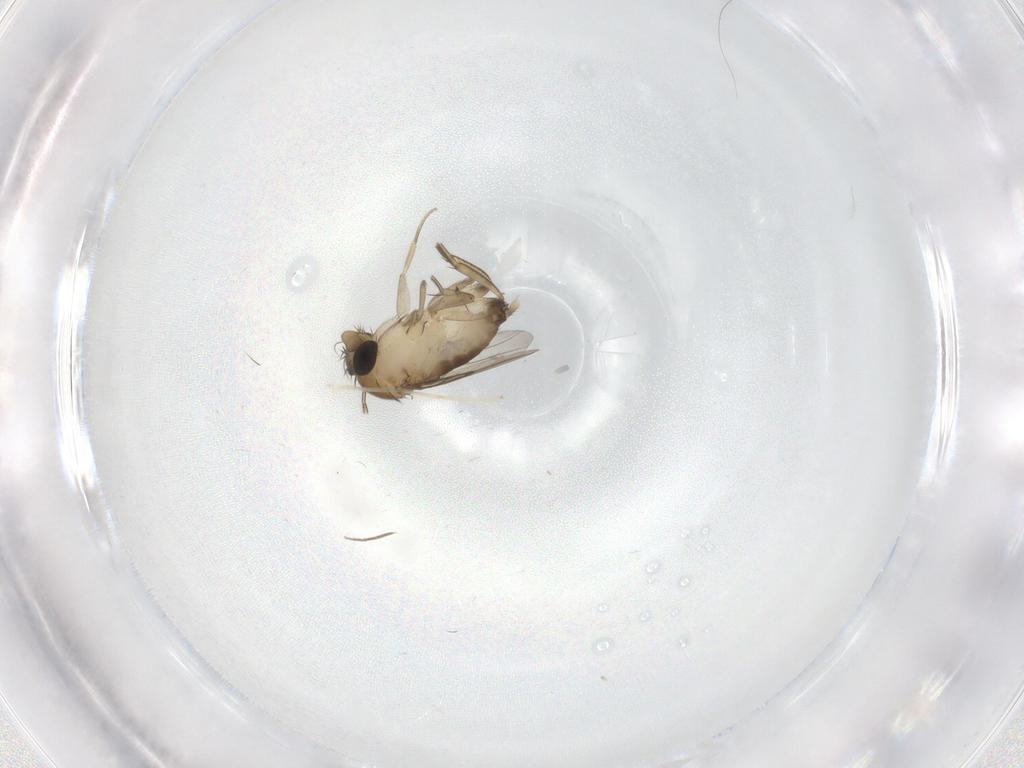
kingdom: Animalia
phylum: Arthropoda
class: Insecta
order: Diptera
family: Phoridae
